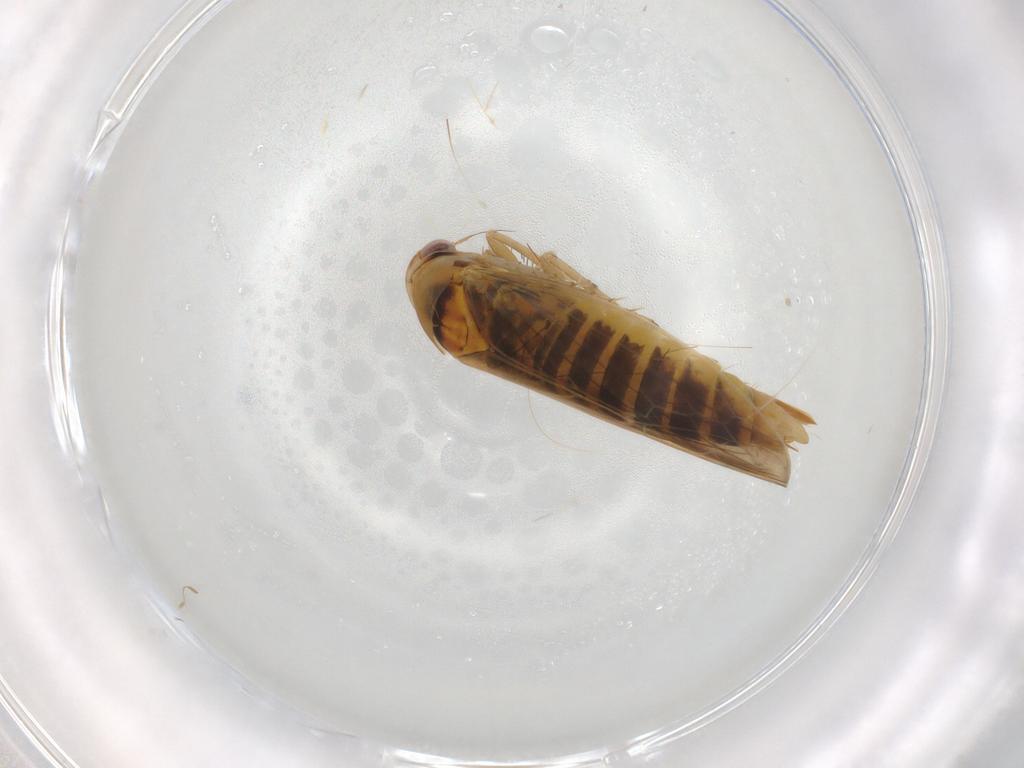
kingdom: Animalia
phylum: Arthropoda
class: Insecta
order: Hemiptera
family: Cicadellidae
